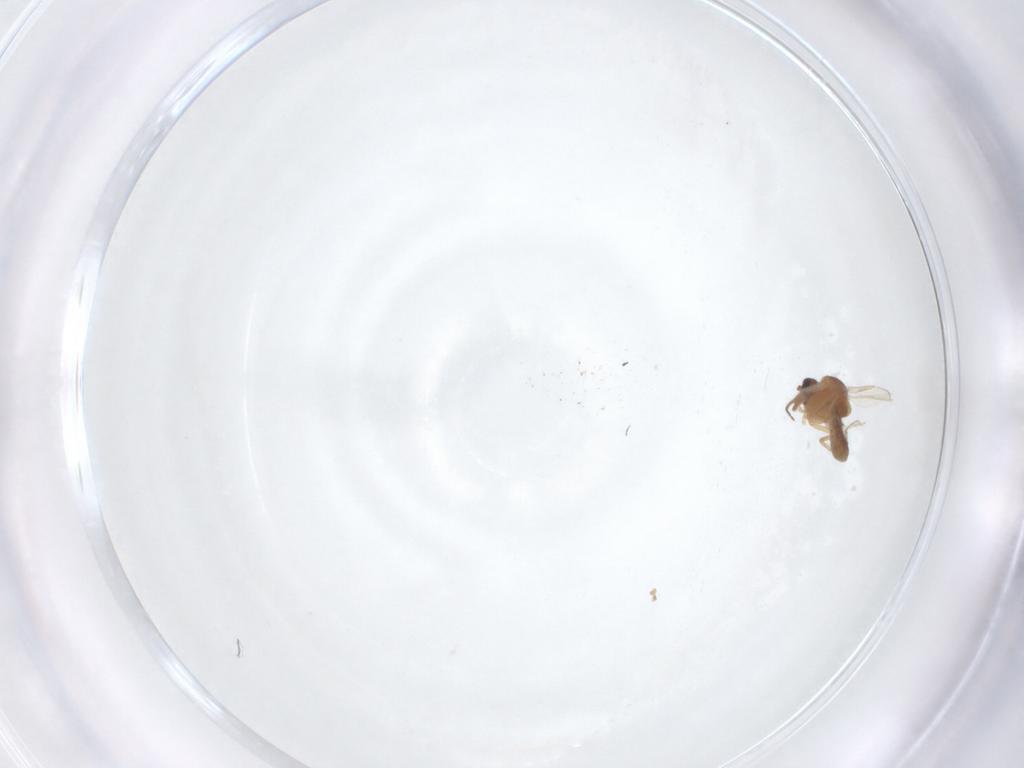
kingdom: Animalia
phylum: Arthropoda
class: Insecta
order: Diptera
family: Ceratopogonidae
